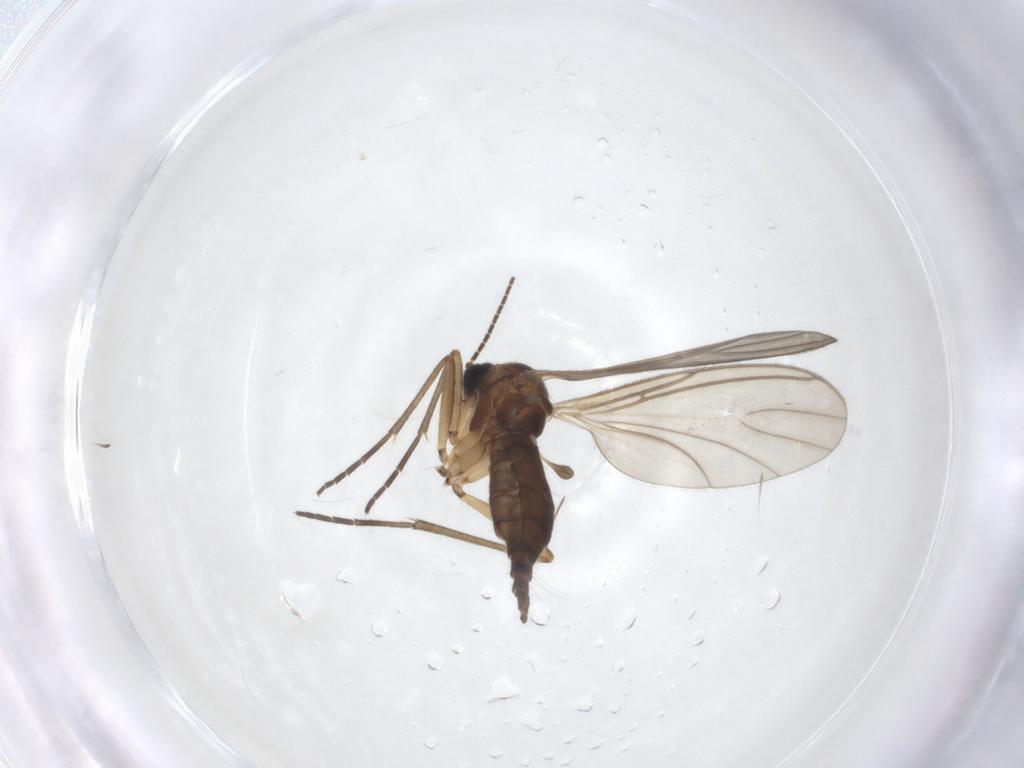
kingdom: Animalia
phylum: Arthropoda
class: Insecta
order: Diptera
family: Sciaridae
